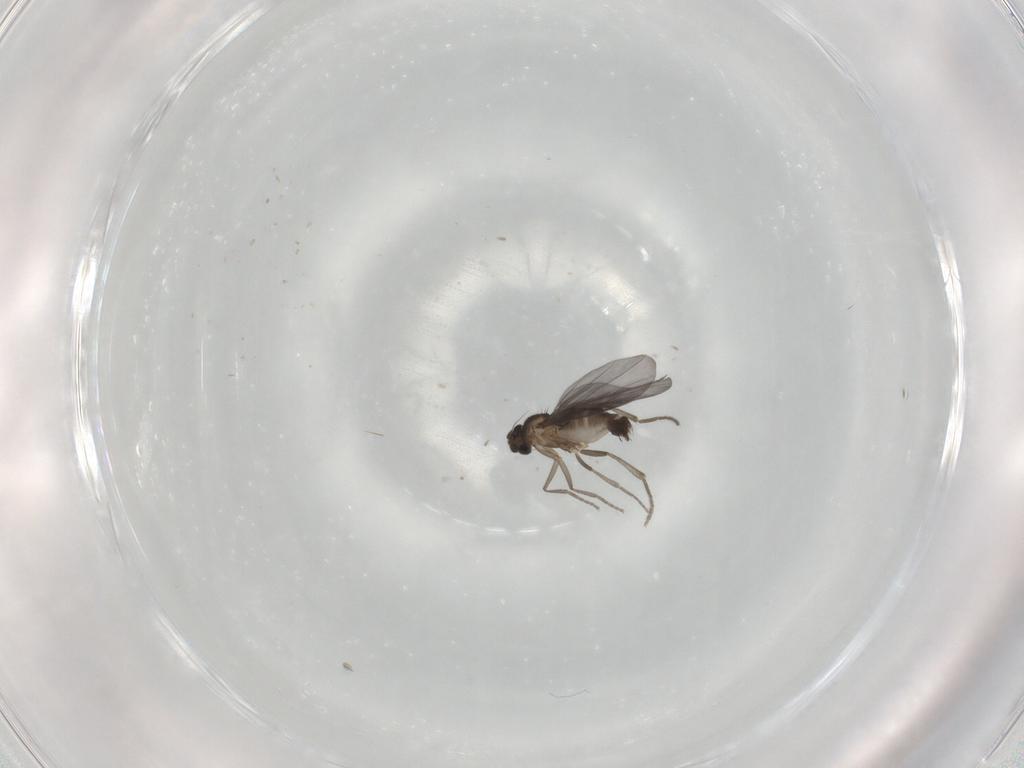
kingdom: Animalia
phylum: Arthropoda
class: Insecta
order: Diptera
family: Phoridae
